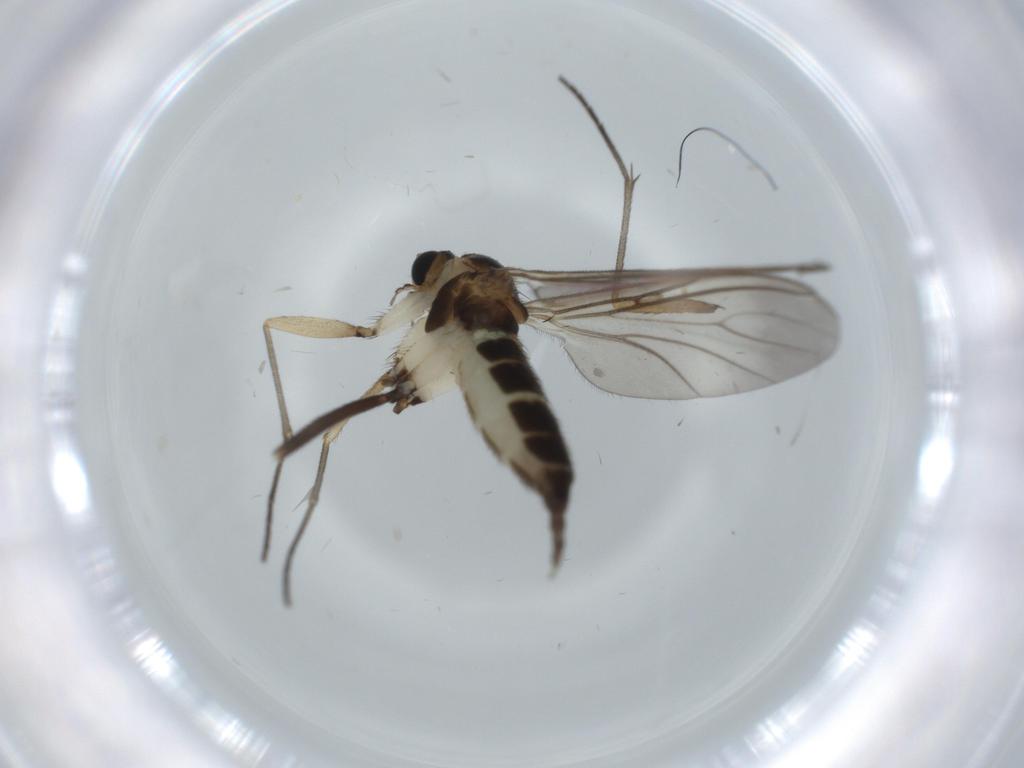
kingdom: Animalia
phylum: Arthropoda
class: Insecta
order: Diptera
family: Sciaridae
